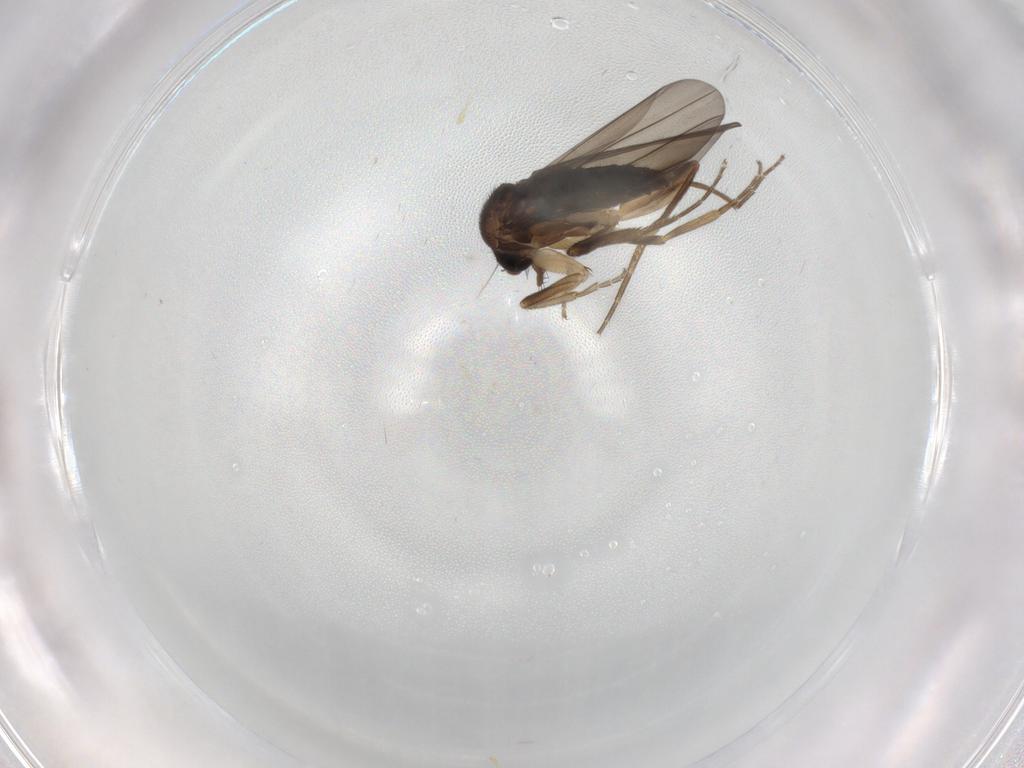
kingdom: Animalia
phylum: Arthropoda
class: Insecta
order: Diptera
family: Phoridae
